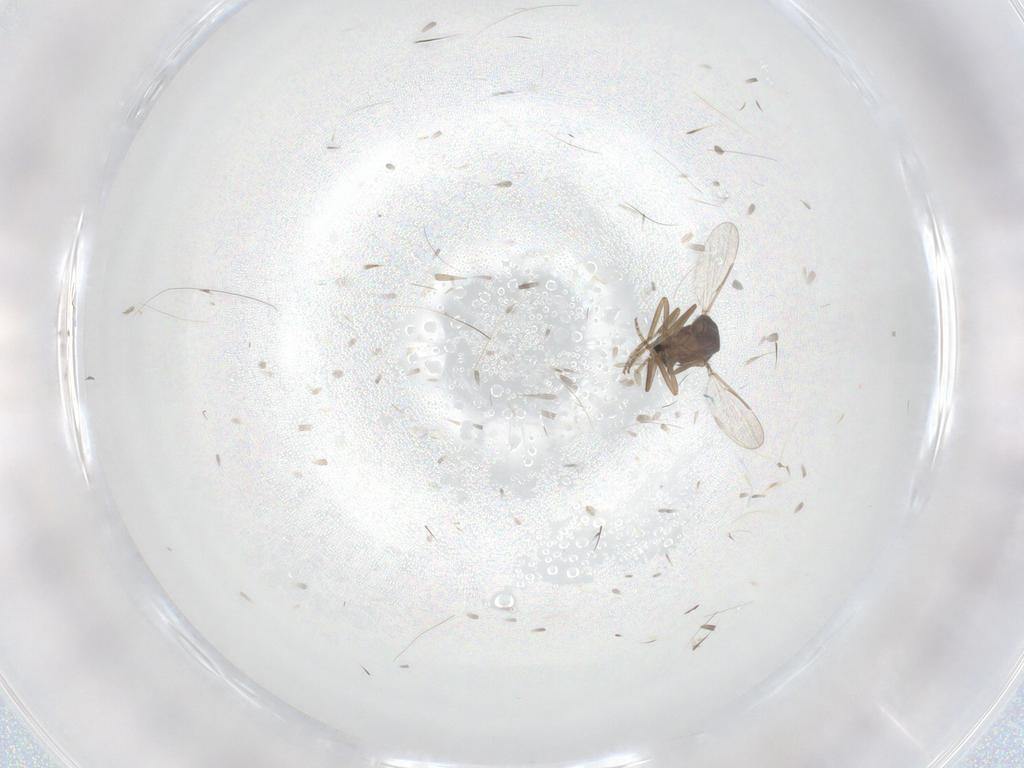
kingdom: Animalia
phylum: Arthropoda
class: Insecta
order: Diptera
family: Ceratopogonidae
